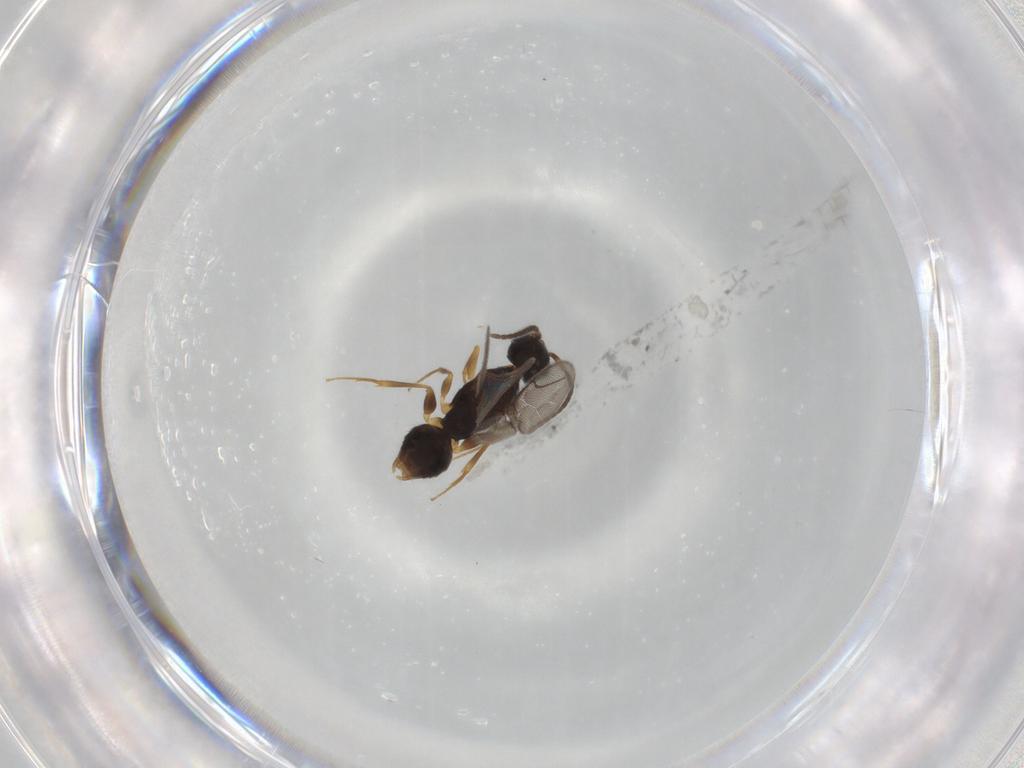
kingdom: Animalia
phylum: Arthropoda
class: Insecta
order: Hymenoptera
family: Bethylidae
